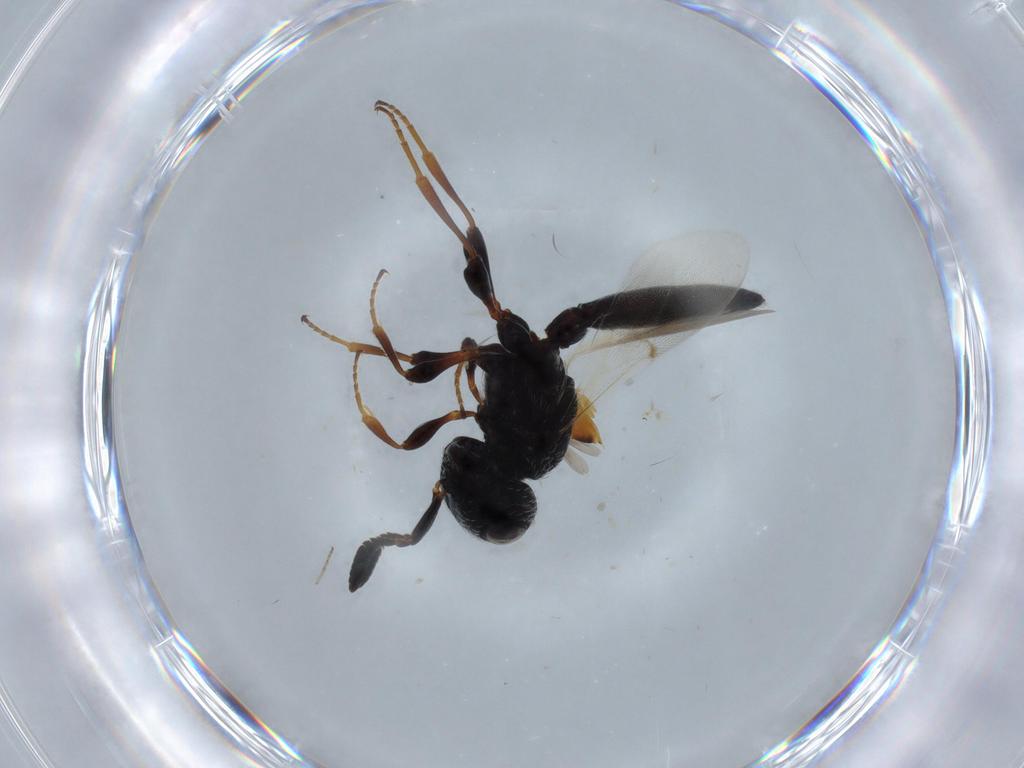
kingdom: Animalia
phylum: Arthropoda
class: Insecta
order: Hymenoptera
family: Scelionidae
